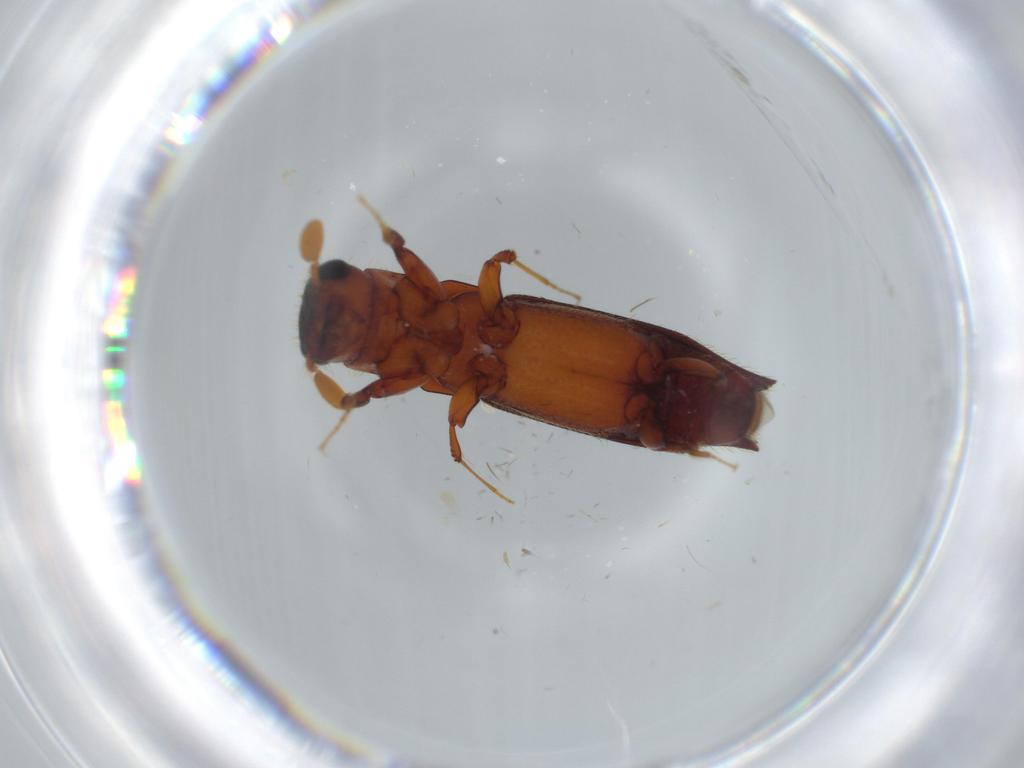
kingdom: Animalia
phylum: Arthropoda
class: Insecta
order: Coleoptera
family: Curculionidae
